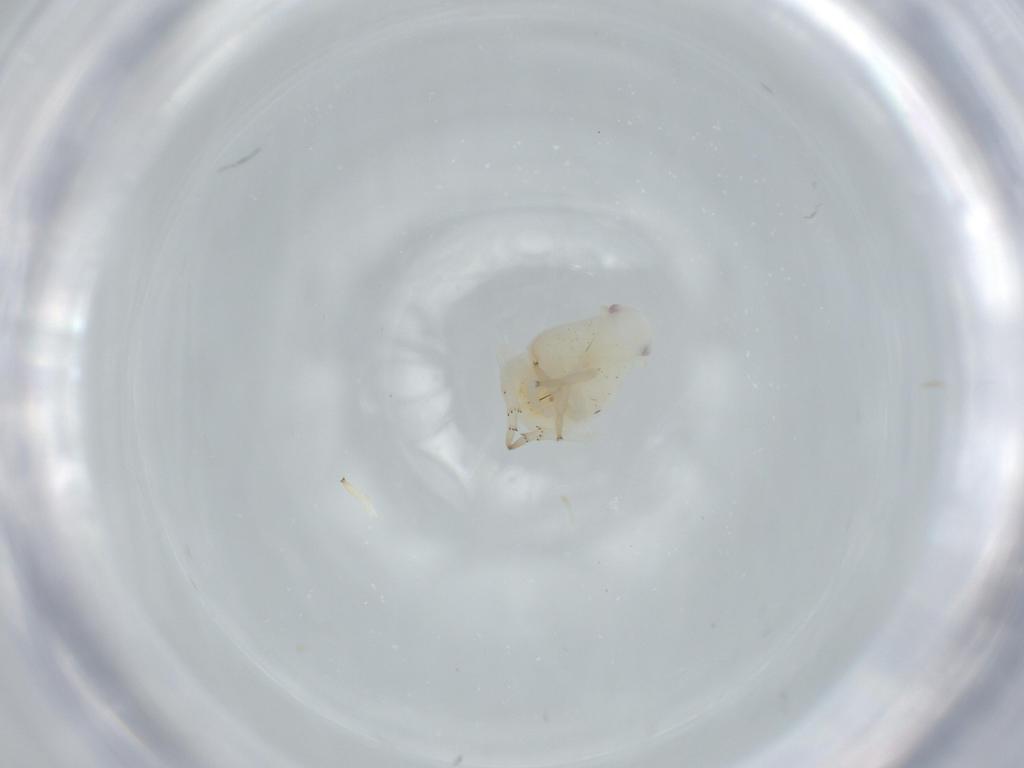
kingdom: Animalia
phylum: Arthropoda
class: Insecta
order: Hemiptera
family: Flatidae
